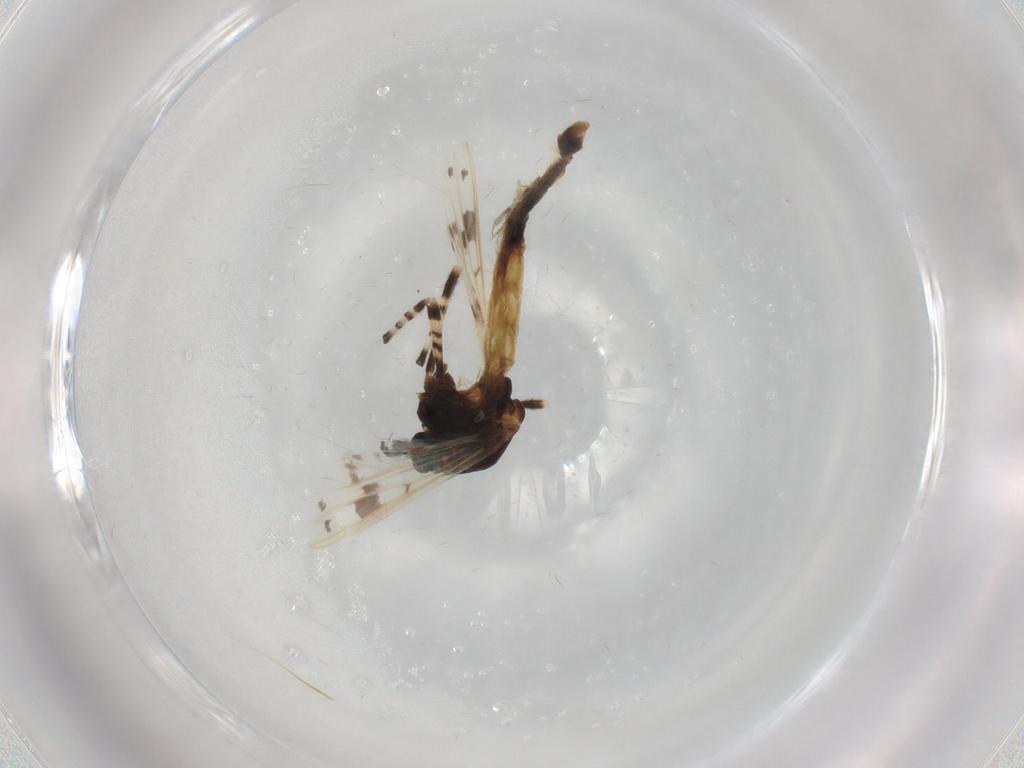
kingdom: Animalia
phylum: Arthropoda
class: Insecta
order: Diptera
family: Chironomidae
